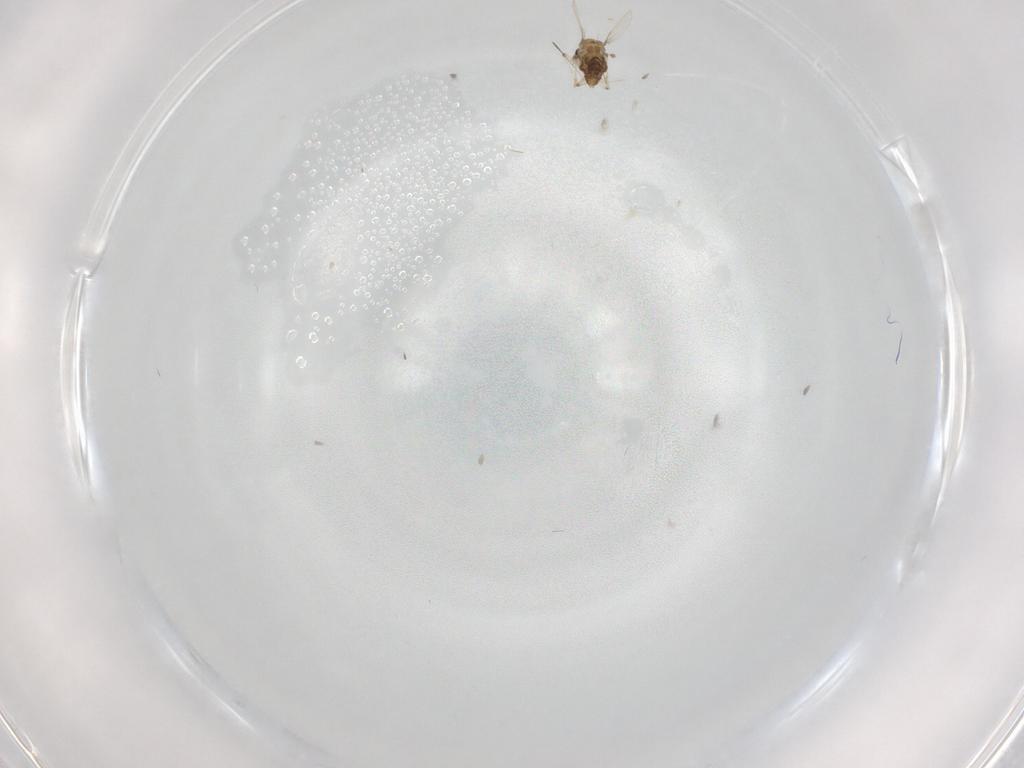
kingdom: Animalia
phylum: Arthropoda
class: Insecta
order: Diptera
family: Chironomidae
